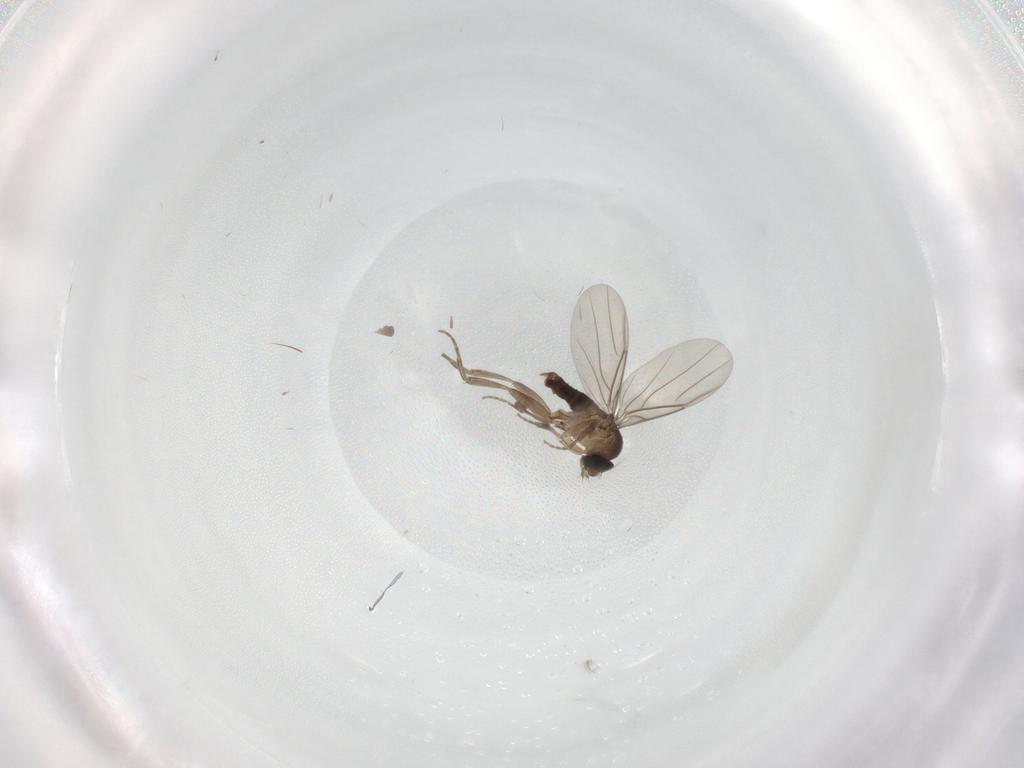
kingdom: Animalia
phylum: Arthropoda
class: Insecta
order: Diptera
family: Phoridae
